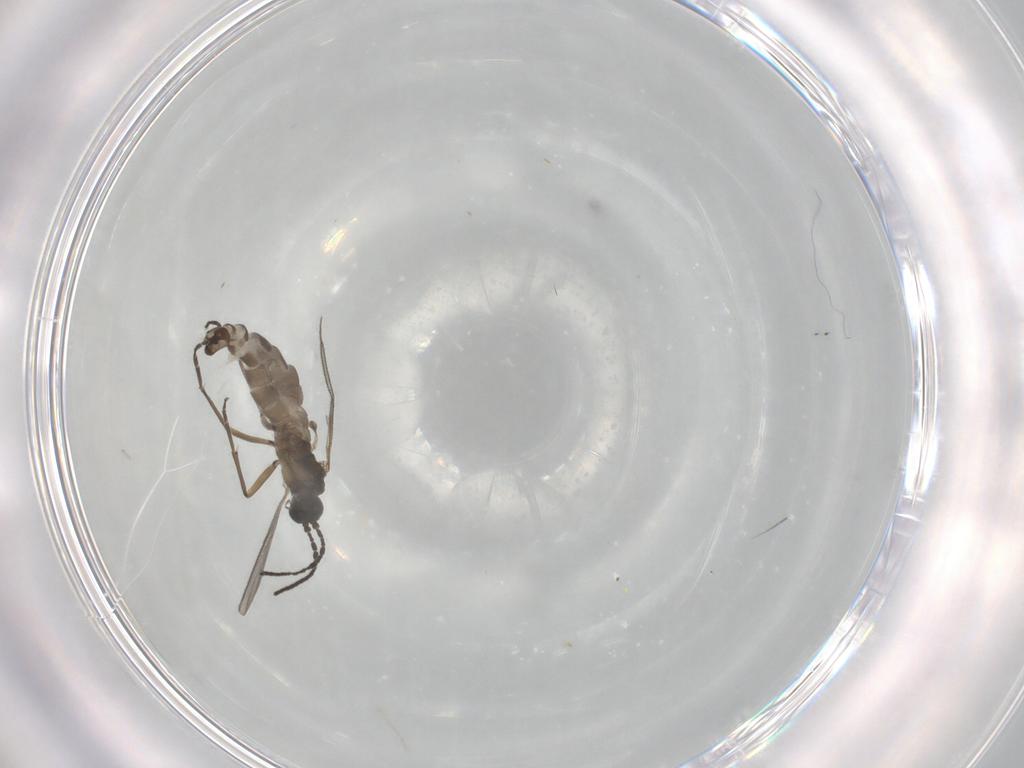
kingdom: Animalia
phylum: Arthropoda
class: Insecta
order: Diptera
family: Sciaridae
